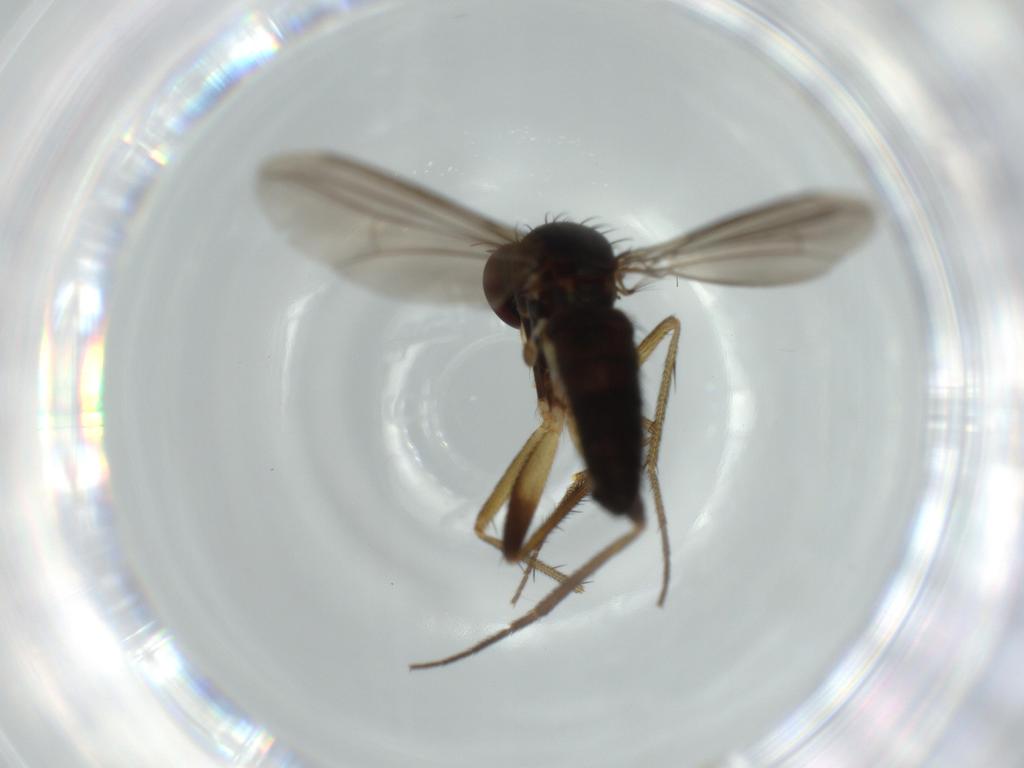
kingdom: Animalia
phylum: Arthropoda
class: Insecta
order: Diptera
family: Dolichopodidae
